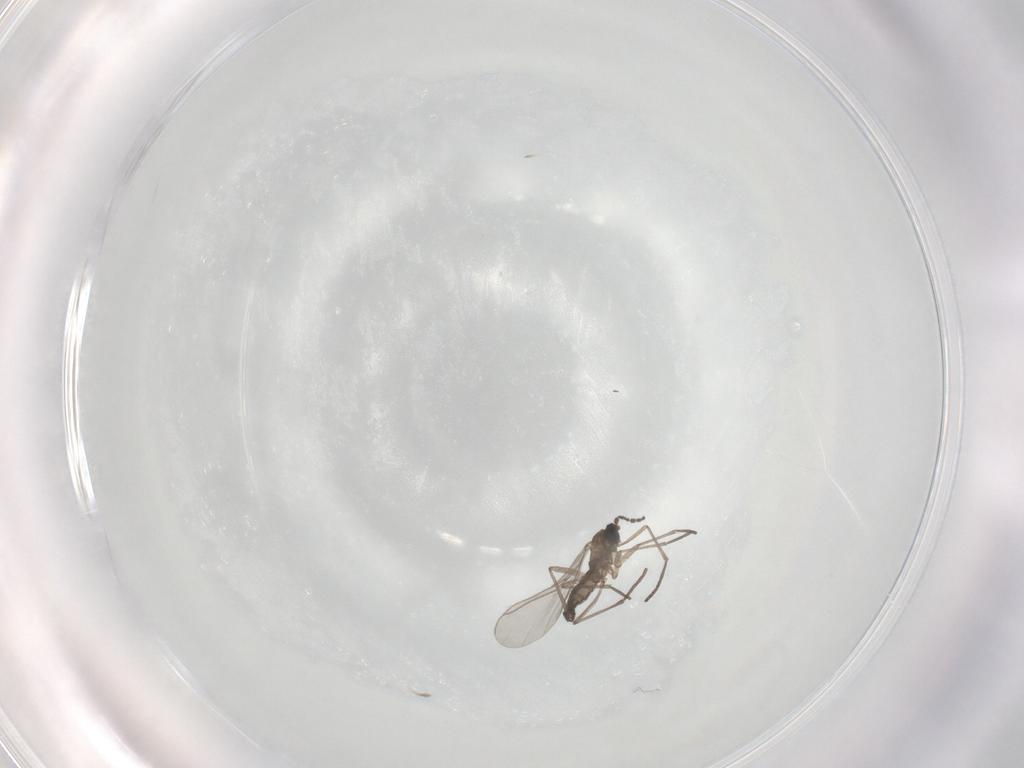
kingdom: Animalia
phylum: Arthropoda
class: Insecta
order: Diptera
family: Sciaridae
